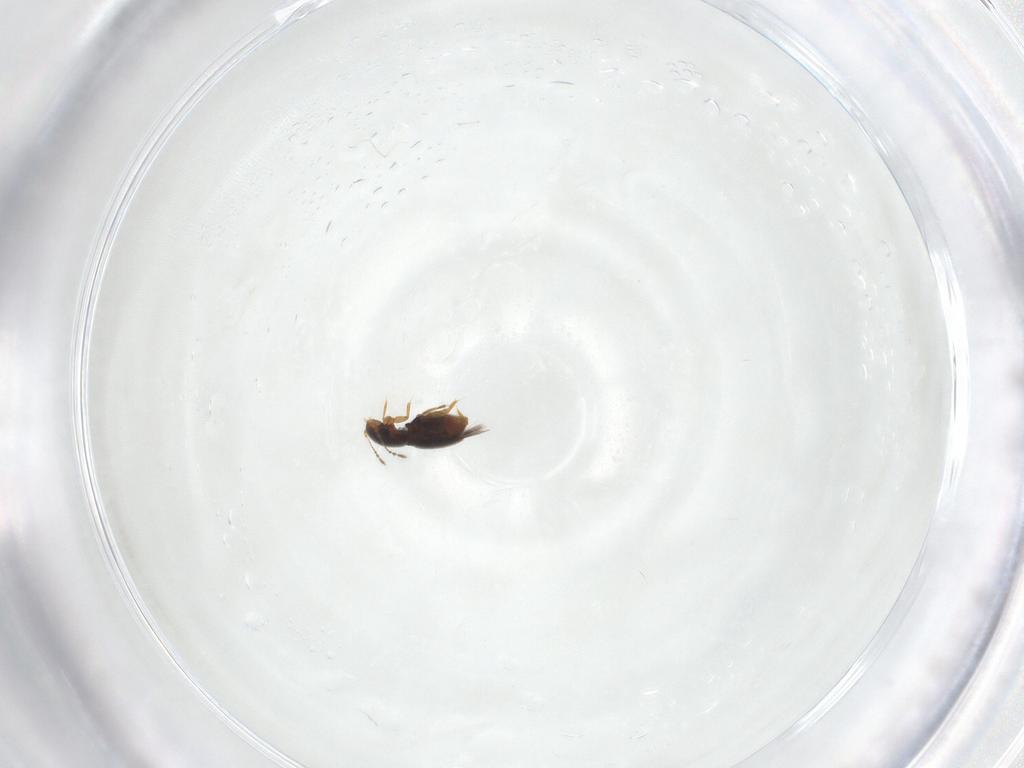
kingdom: Animalia
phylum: Arthropoda
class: Insecta
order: Coleoptera
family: Ptiliidae
